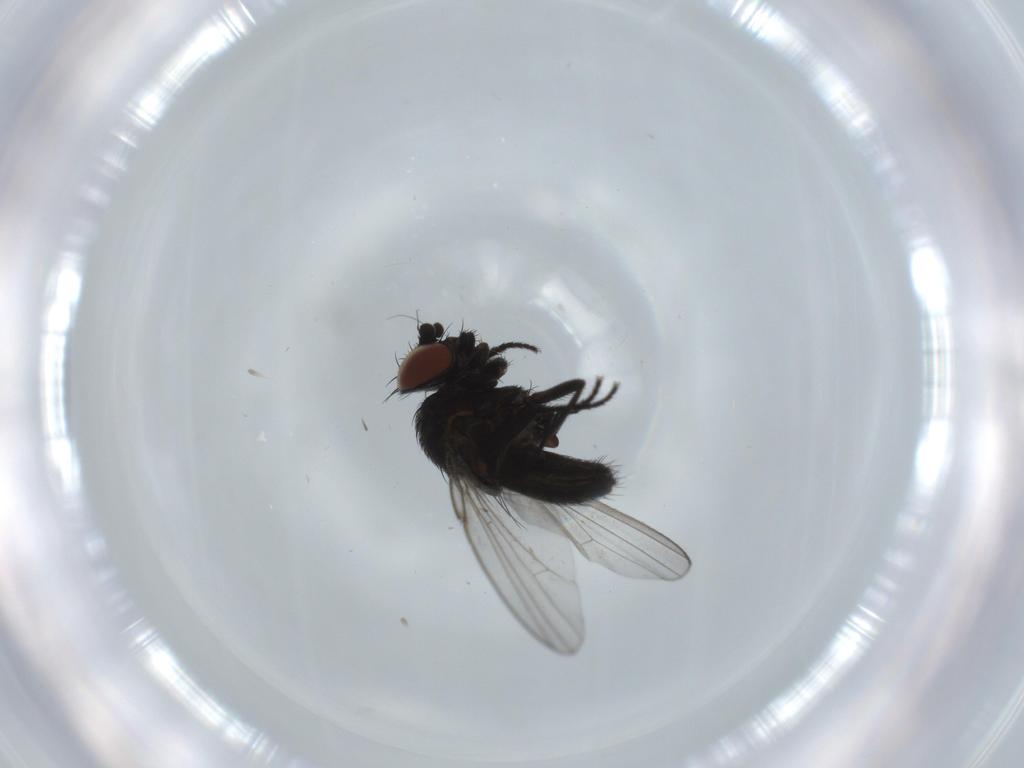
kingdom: Animalia
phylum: Arthropoda
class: Insecta
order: Diptera
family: Milichiidae
